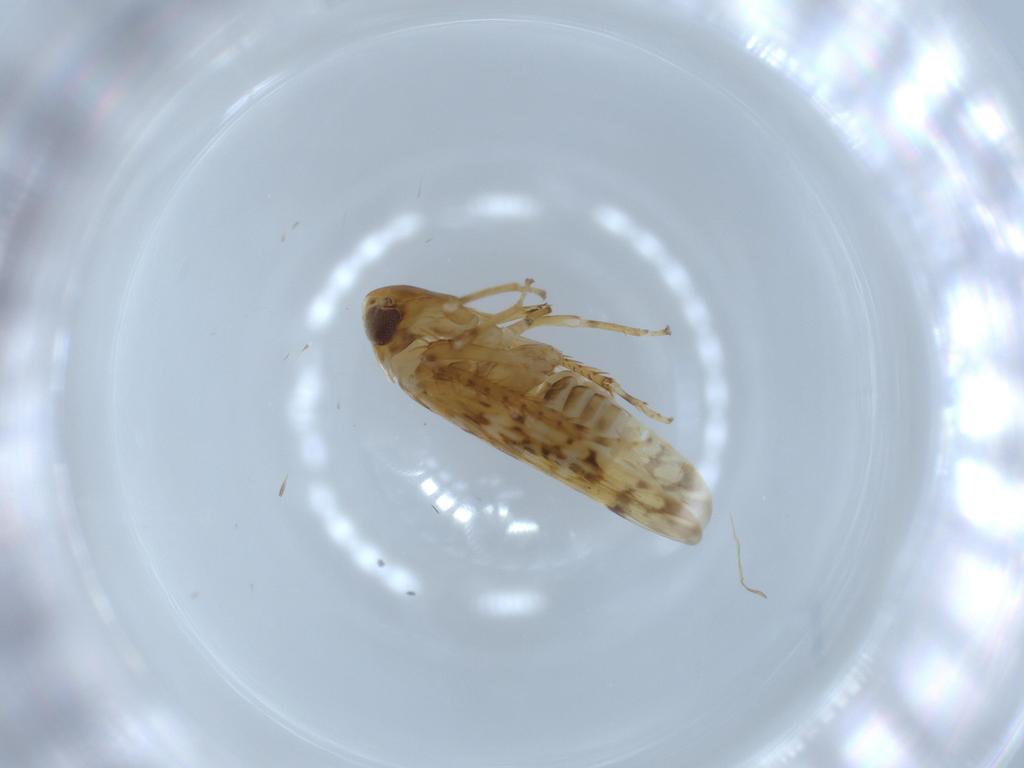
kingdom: Animalia
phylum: Arthropoda
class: Insecta
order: Hemiptera
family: Cicadellidae
